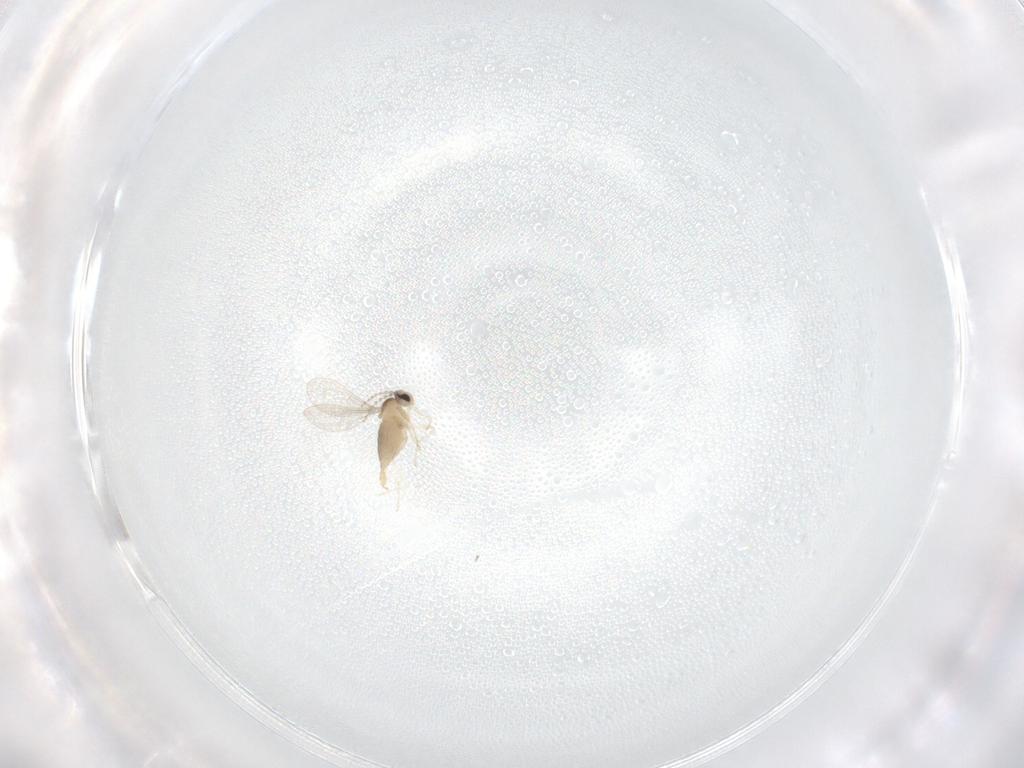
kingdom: Animalia
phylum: Arthropoda
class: Insecta
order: Diptera
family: Cecidomyiidae
